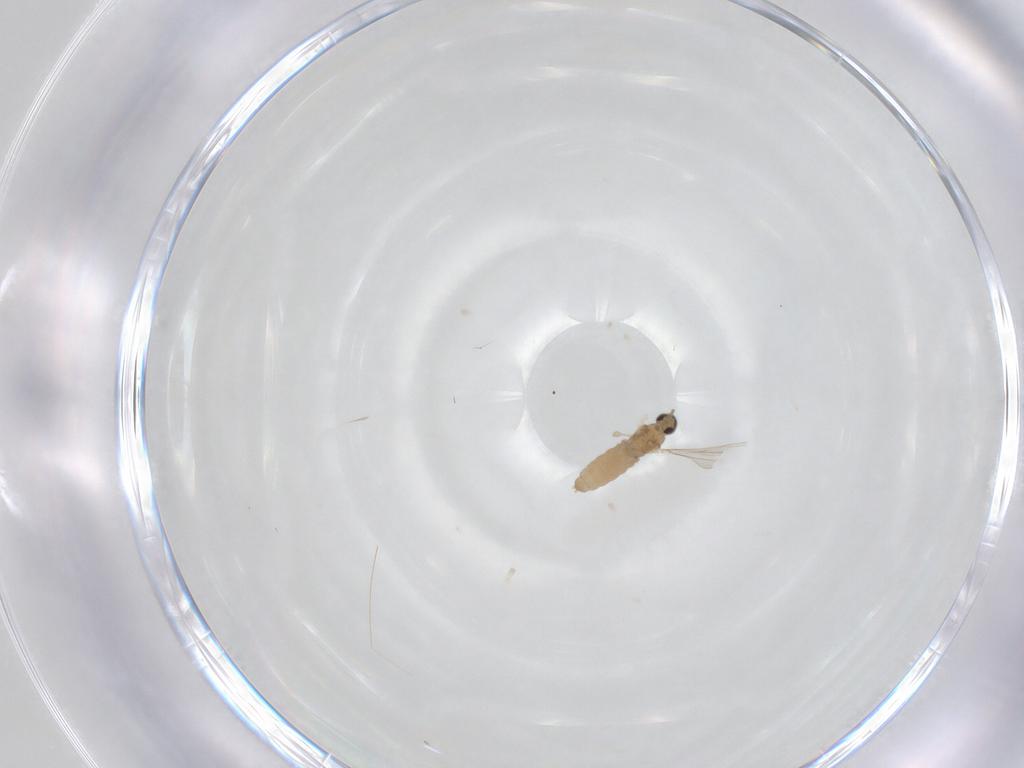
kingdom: Animalia
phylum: Arthropoda
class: Insecta
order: Diptera
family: Cecidomyiidae
